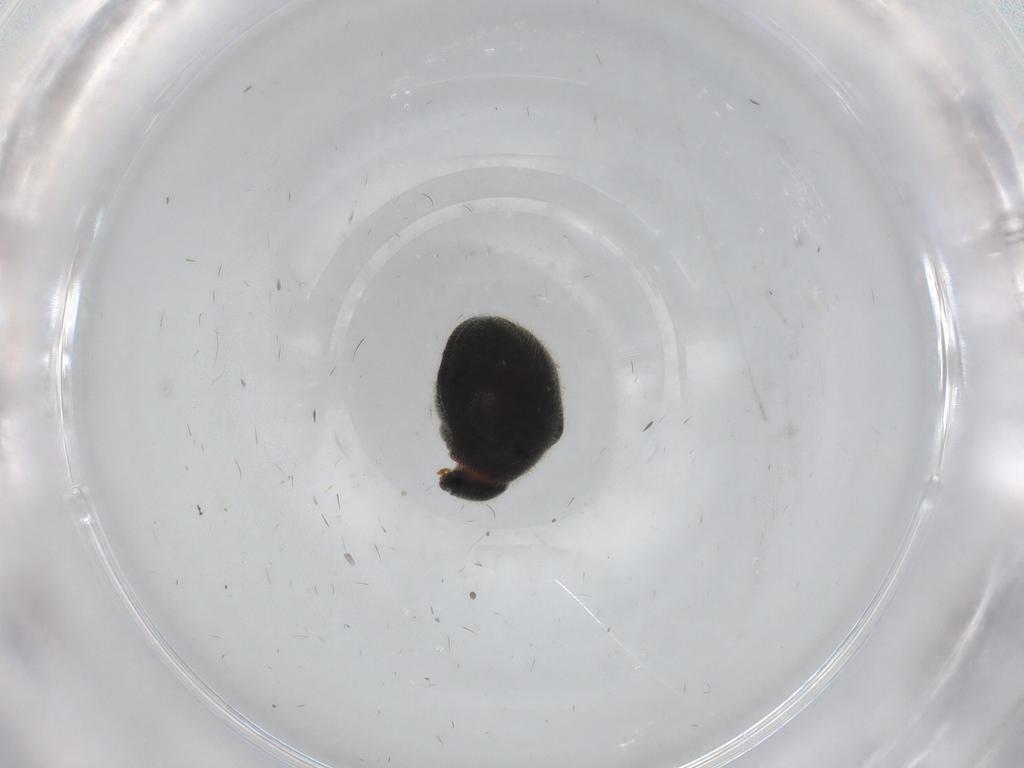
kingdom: Animalia
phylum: Arthropoda
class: Insecta
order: Coleoptera
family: Ptinidae
